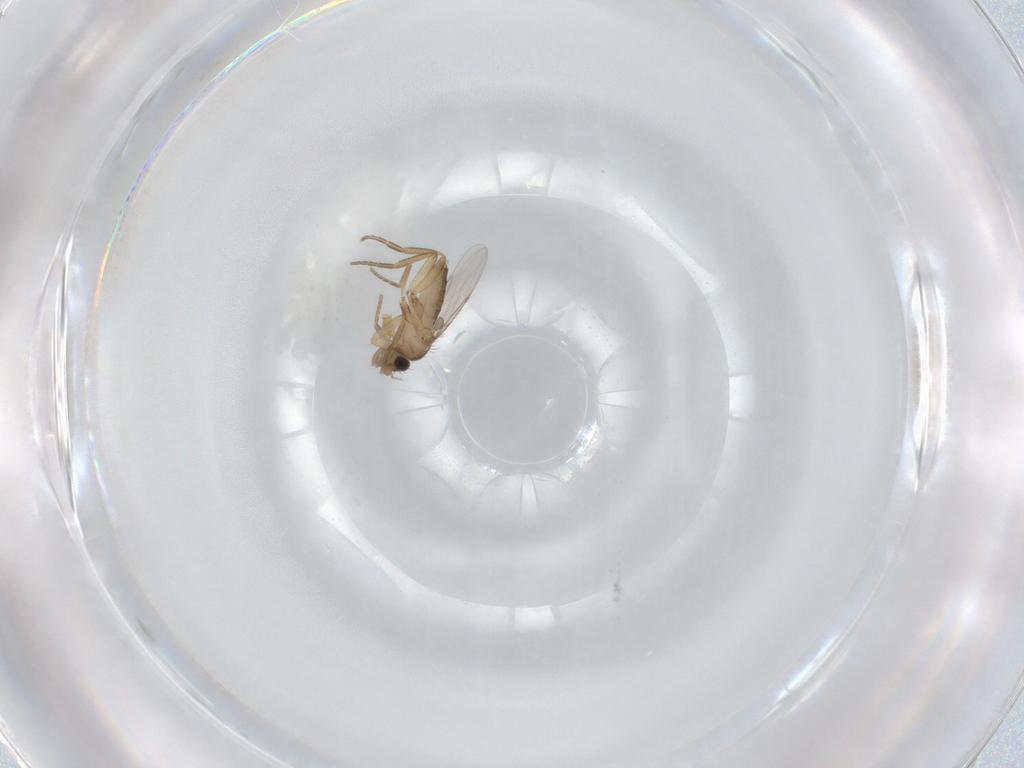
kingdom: Animalia
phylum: Arthropoda
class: Insecta
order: Diptera
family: Phoridae
